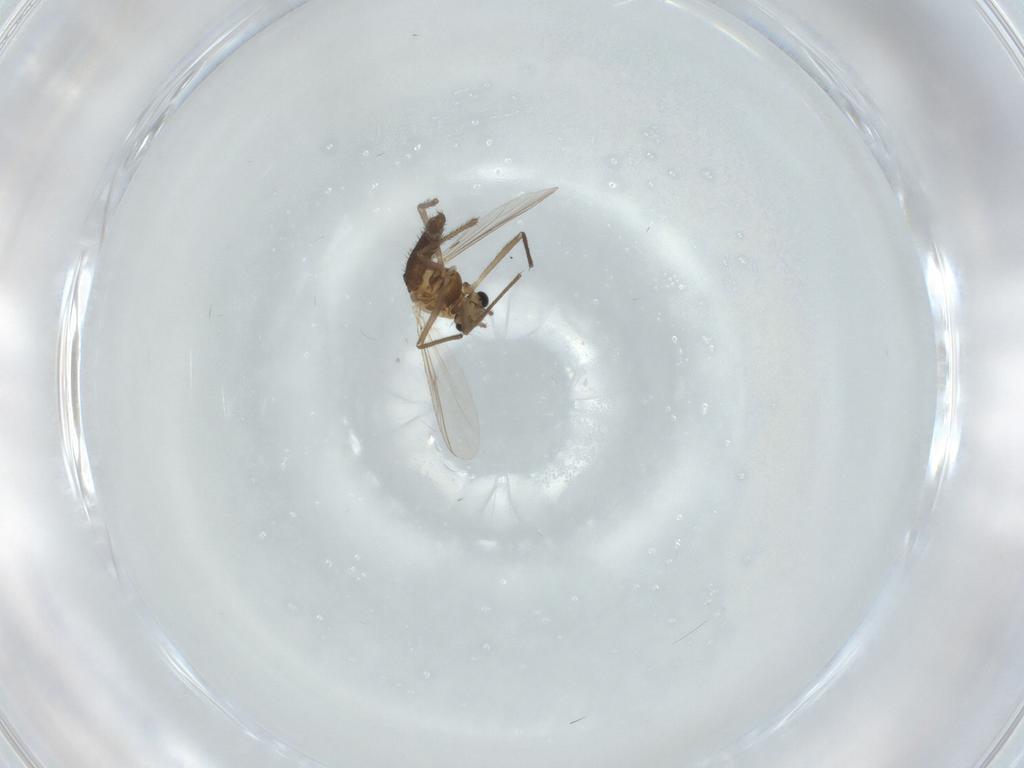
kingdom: Animalia
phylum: Arthropoda
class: Insecta
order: Diptera
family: Chironomidae
